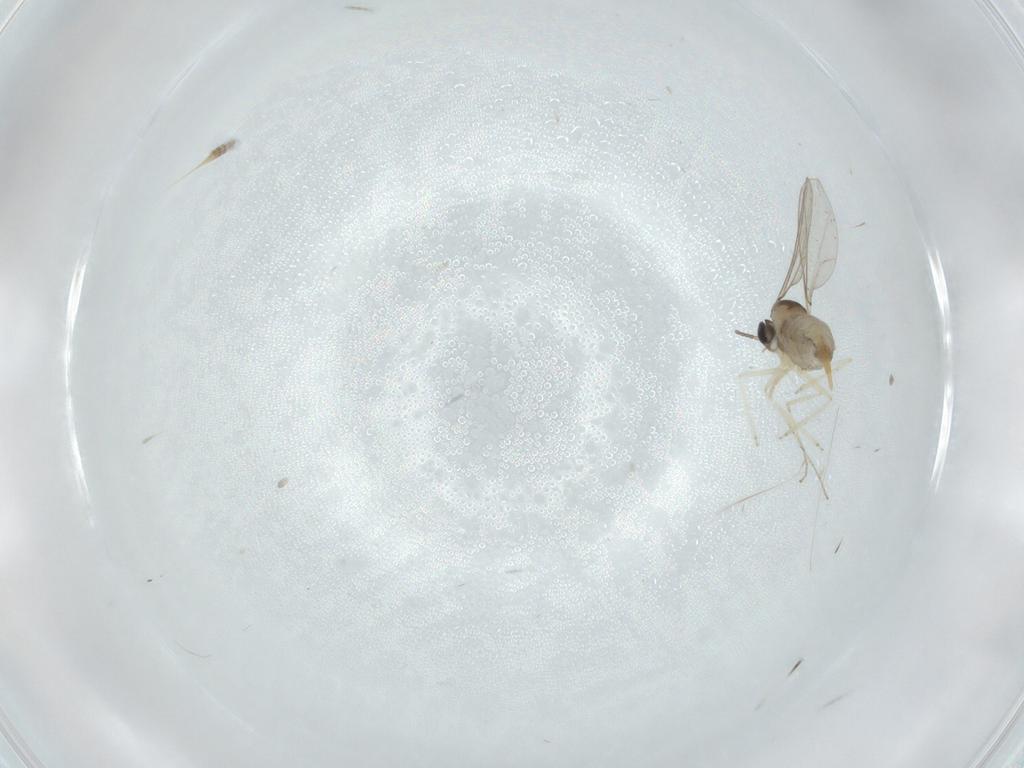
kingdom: Animalia
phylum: Arthropoda
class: Insecta
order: Diptera
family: Cecidomyiidae
